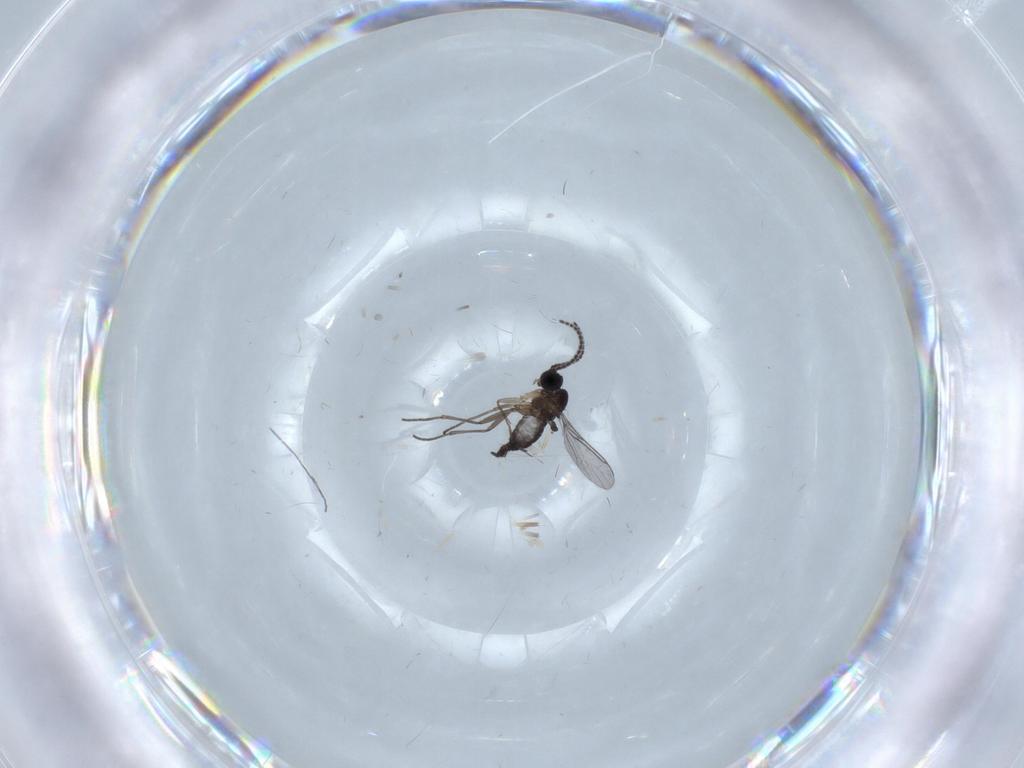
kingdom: Animalia
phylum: Arthropoda
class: Insecta
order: Diptera
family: Sciaridae
